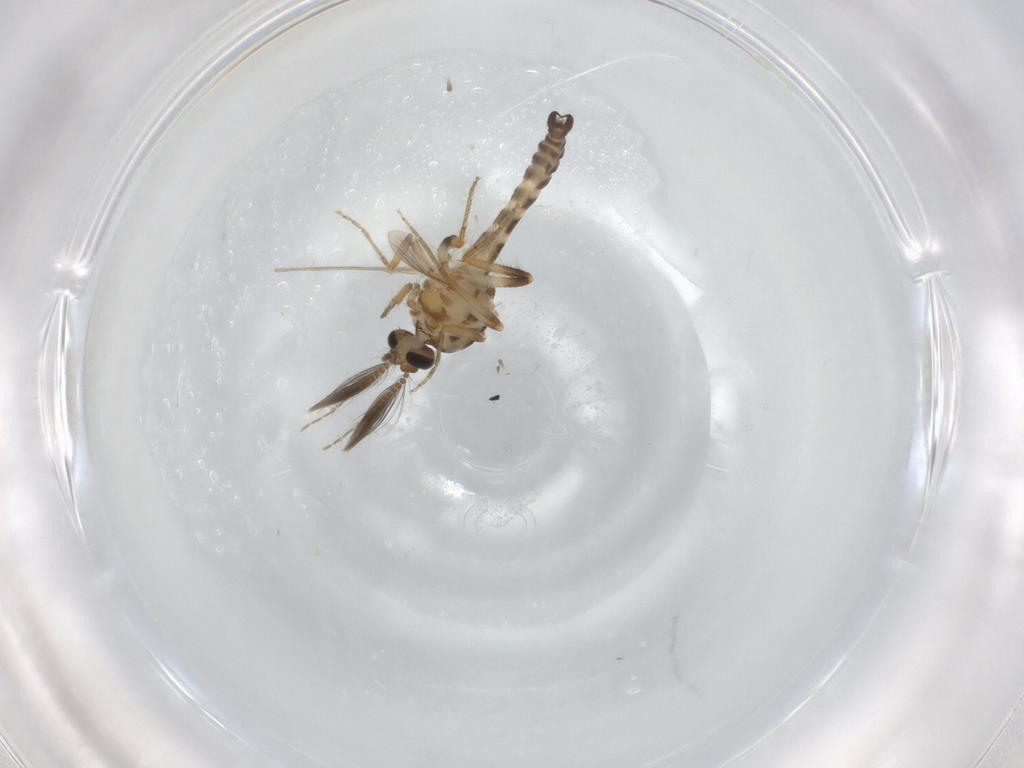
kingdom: Animalia
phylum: Arthropoda
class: Insecta
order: Diptera
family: Ceratopogonidae
